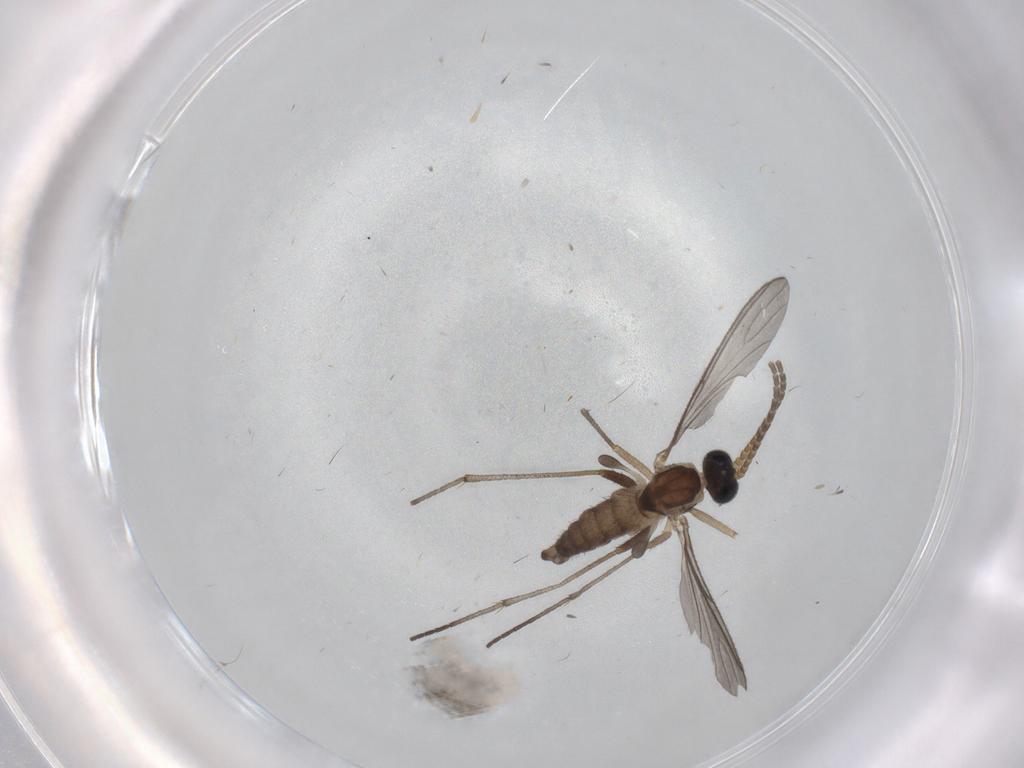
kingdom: Animalia
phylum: Arthropoda
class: Insecta
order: Diptera
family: Sciaridae
